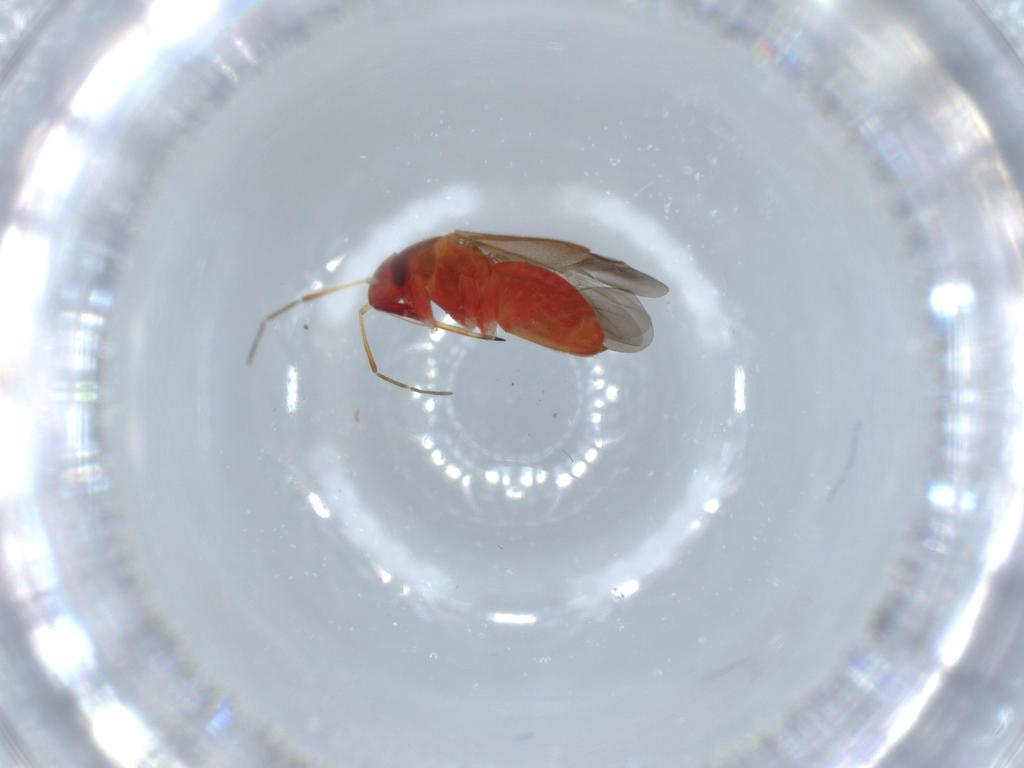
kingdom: Animalia
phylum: Arthropoda
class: Insecta
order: Hemiptera
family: Miridae
